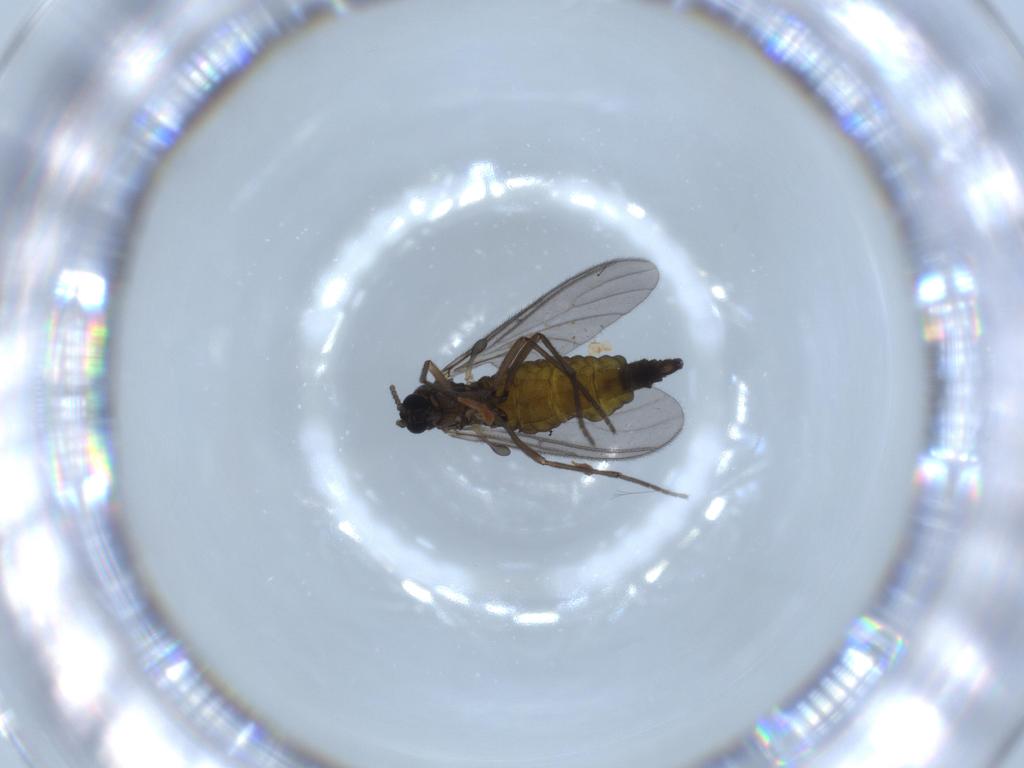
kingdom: Animalia
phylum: Arthropoda
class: Insecta
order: Diptera
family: Sciaridae
